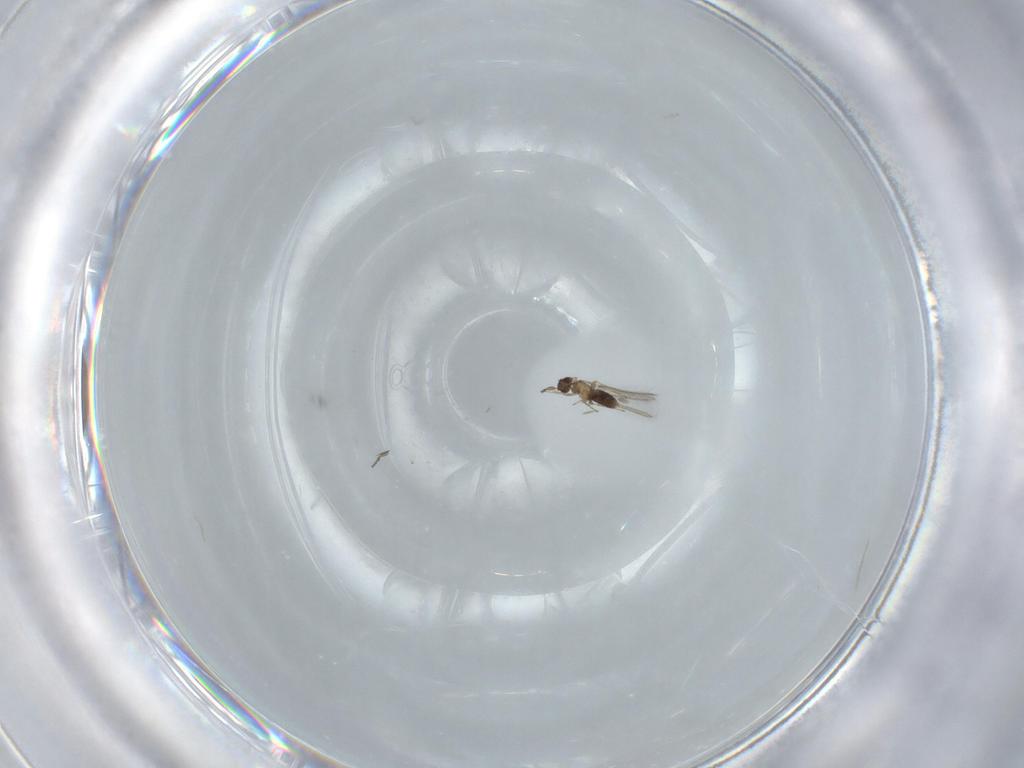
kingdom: Animalia
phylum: Arthropoda
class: Insecta
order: Hymenoptera
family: Mymaridae
